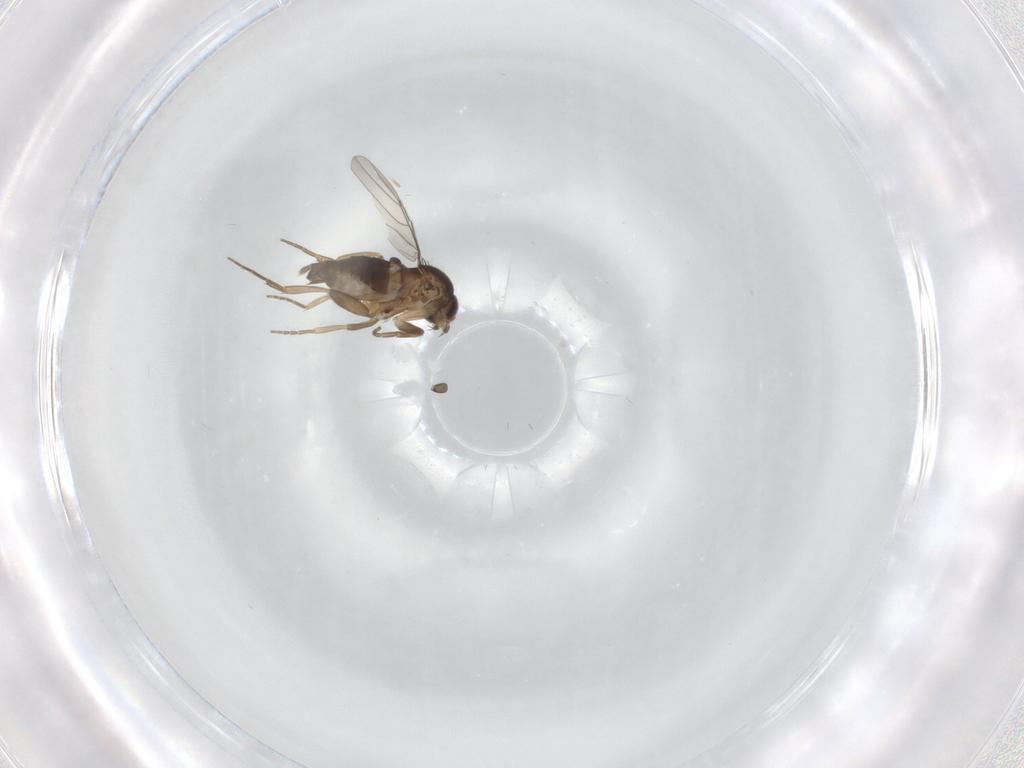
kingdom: Animalia
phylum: Arthropoda
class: Insecta
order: Diptera
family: Phoridae
